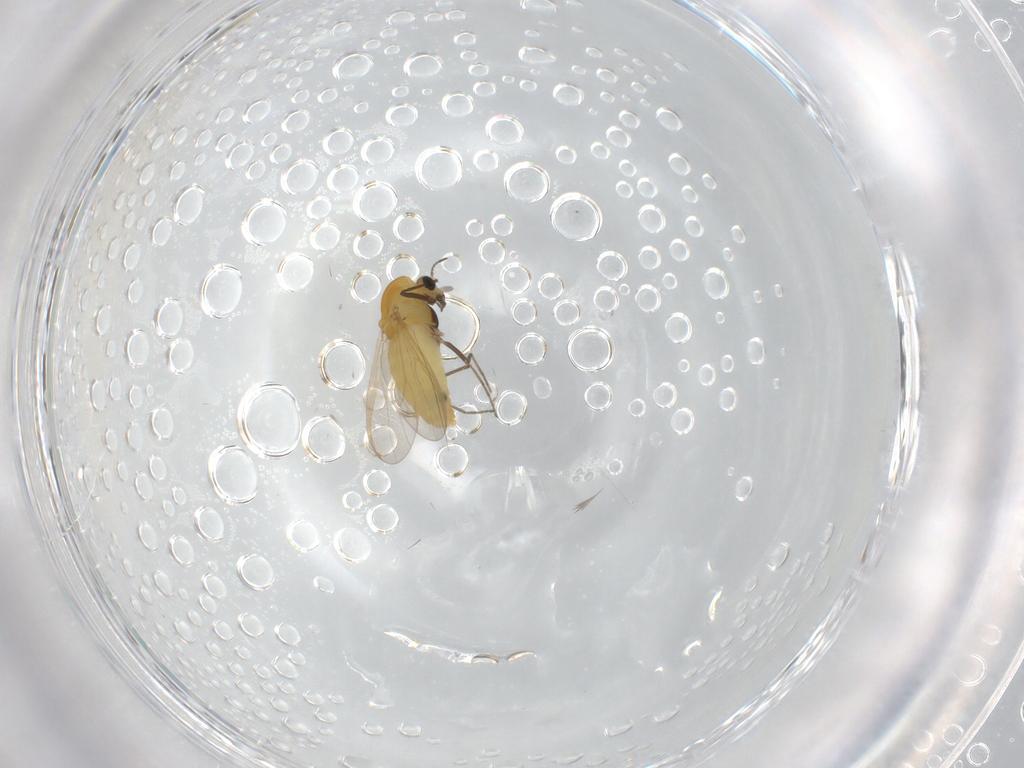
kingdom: Animalia
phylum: Arthropoda
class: Insecta
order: Diptera
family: Chironomidae
